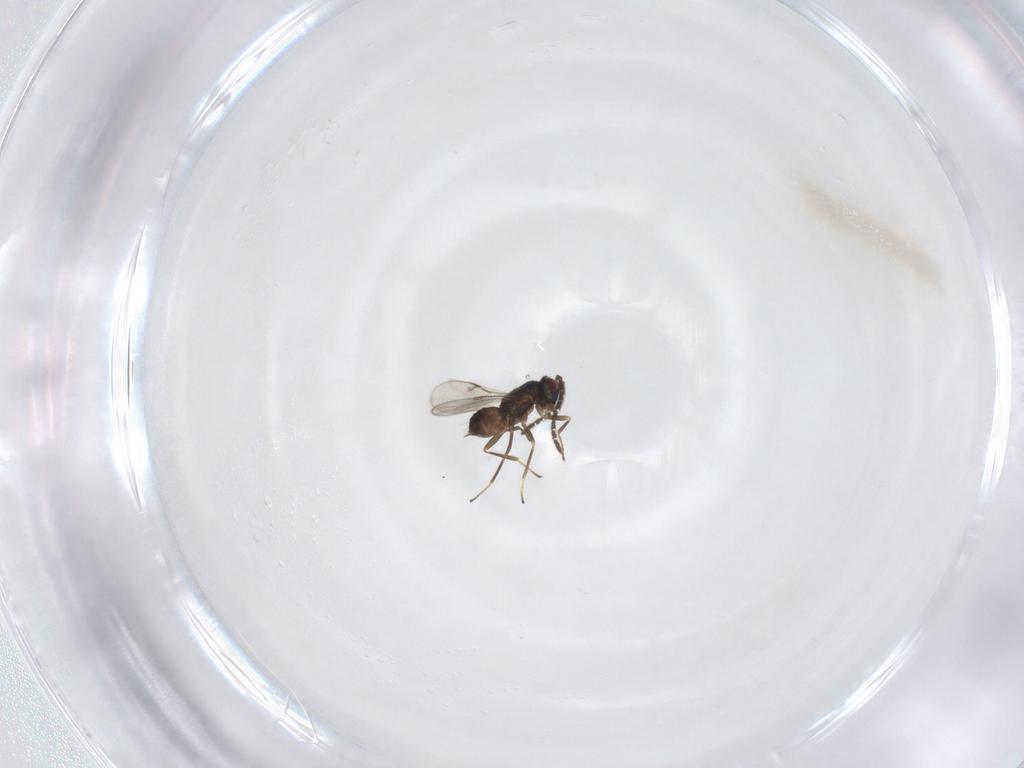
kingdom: Animalia
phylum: Arthropoda
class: Insecta
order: Hymenoptera
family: Encyrtidae
